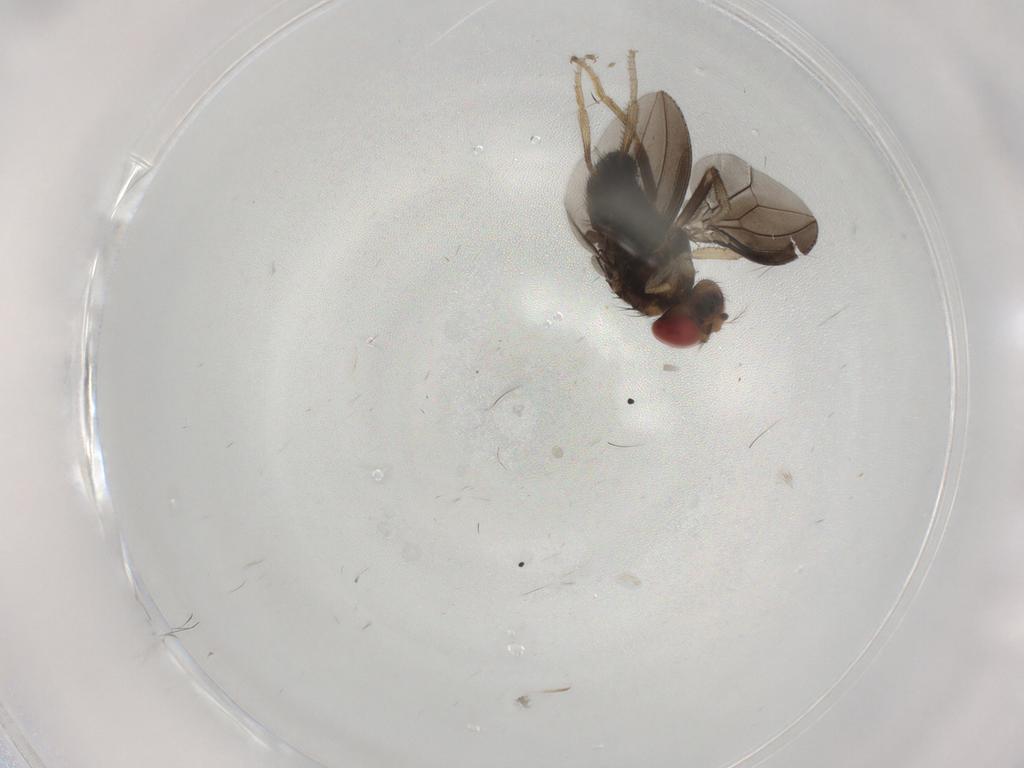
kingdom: Animalia
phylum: Arthropoda
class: Insecta
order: Diptera
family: Drosophilidae
